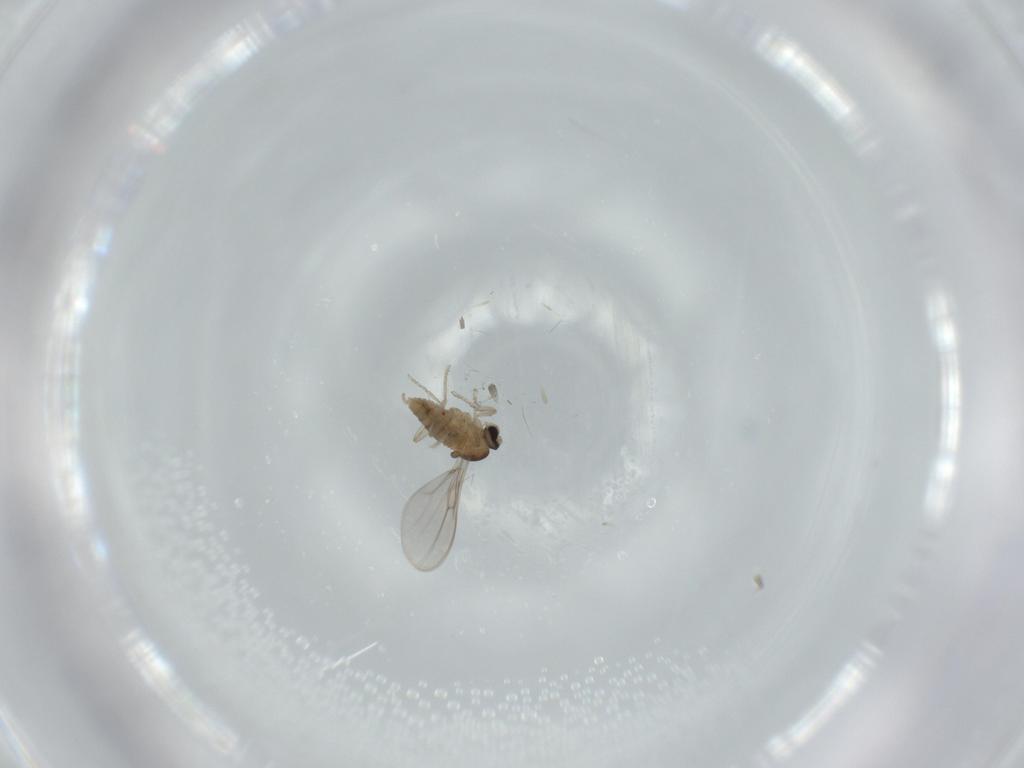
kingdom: Animalia
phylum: Arthropoda
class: Insecta
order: Diptera
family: Cecidomyiidae
